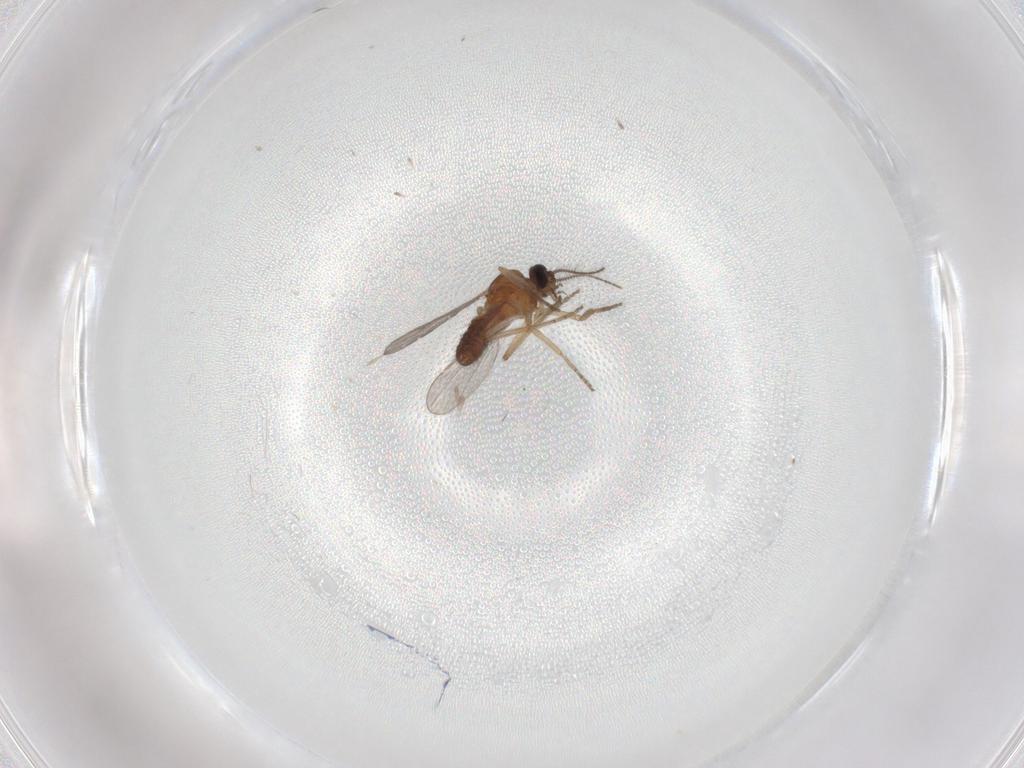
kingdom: Animalia
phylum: Arthropoda
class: Insecta
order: Diptera
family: Ceratopogonidae
